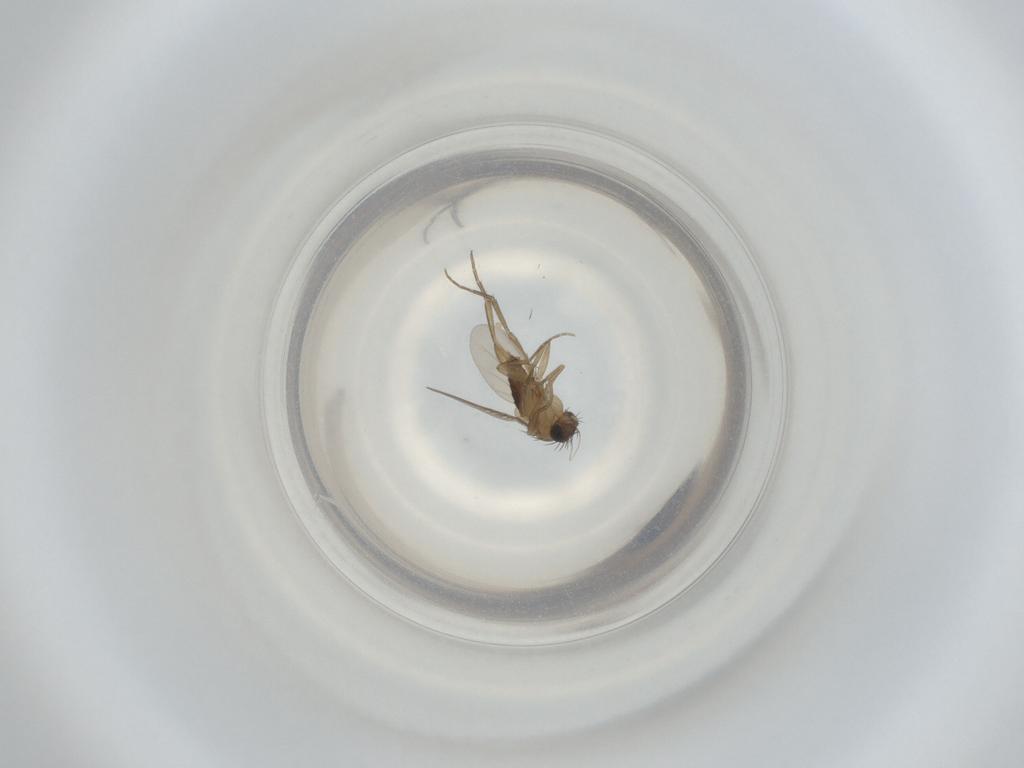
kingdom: Animalia
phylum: Arthropoda
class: Insecta
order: Diptera
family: Phoridae
